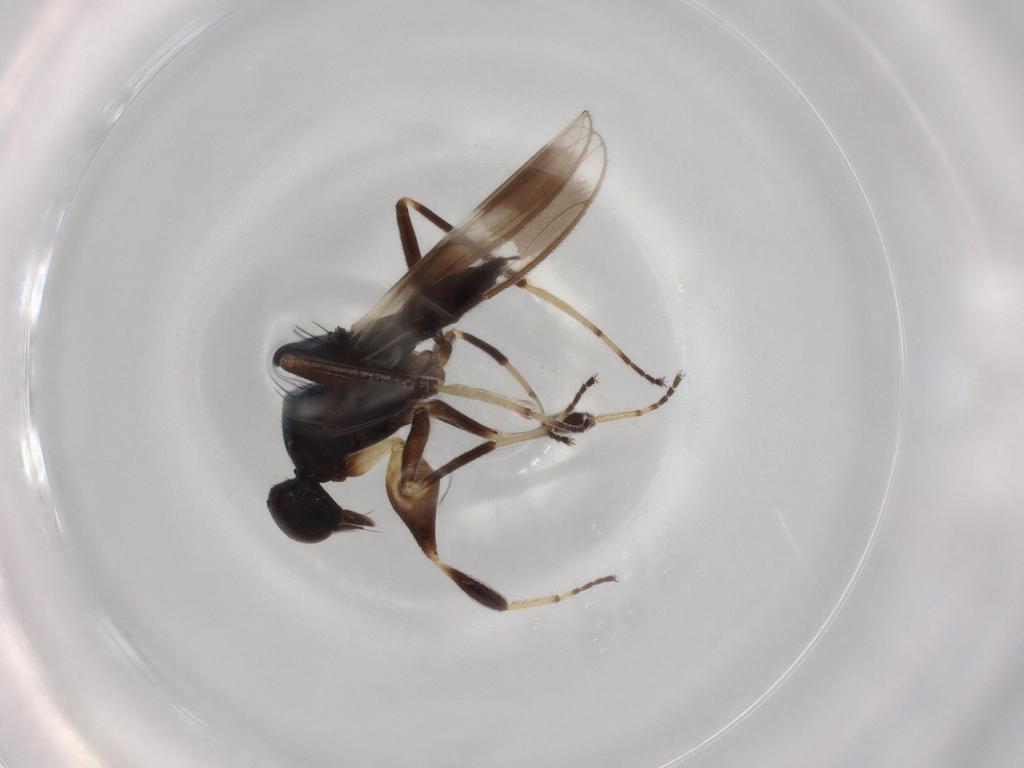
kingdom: Animalia
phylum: Arthropoda
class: Insecta
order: Diptera
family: Hybotidae
